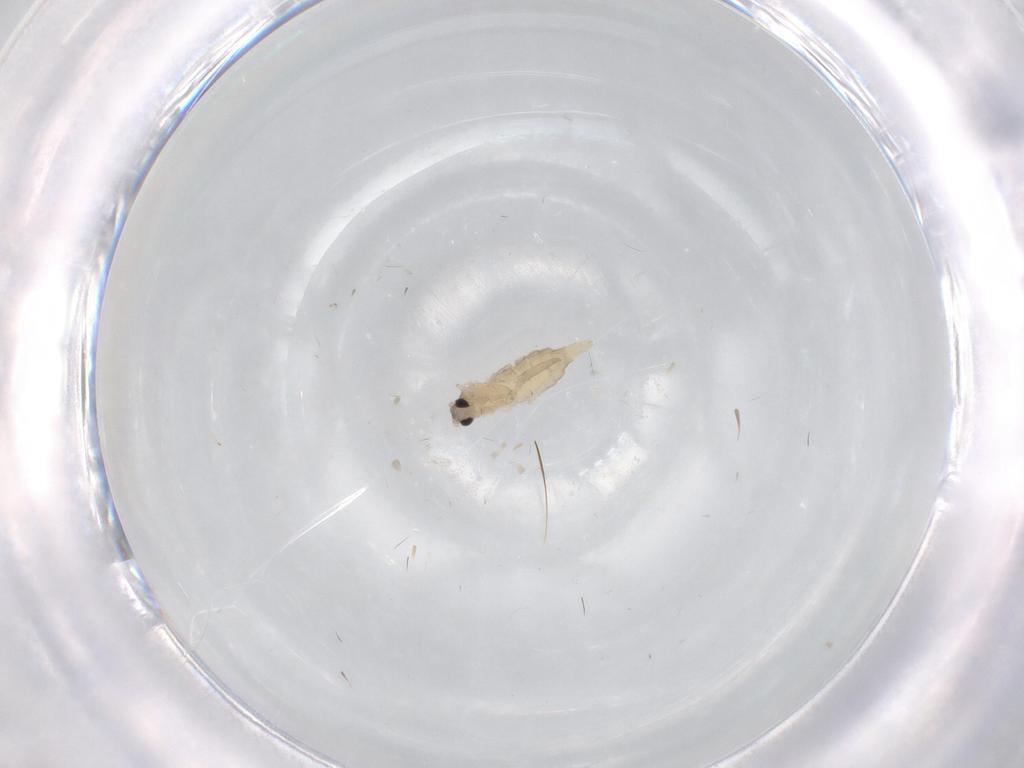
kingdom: Animalia
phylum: Arthropoda
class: Insecta
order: Diptera
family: Cecidomyiidae
